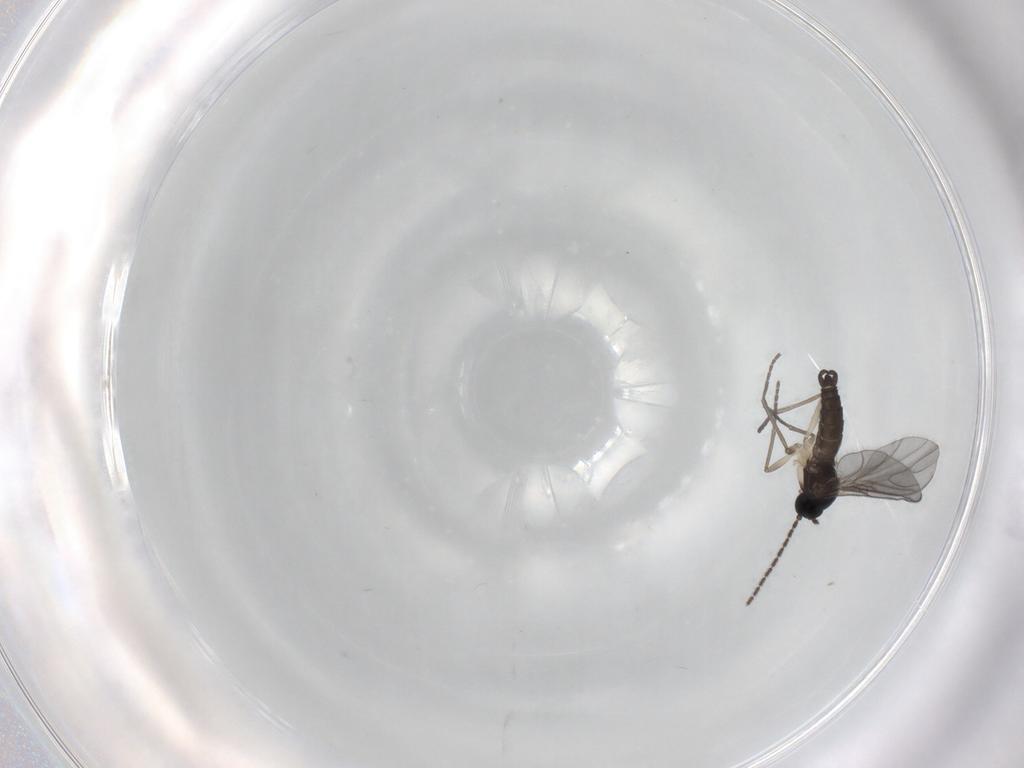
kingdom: Animalia
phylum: Arthropoda
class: Insecta
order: Diptera
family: Sciaridae
